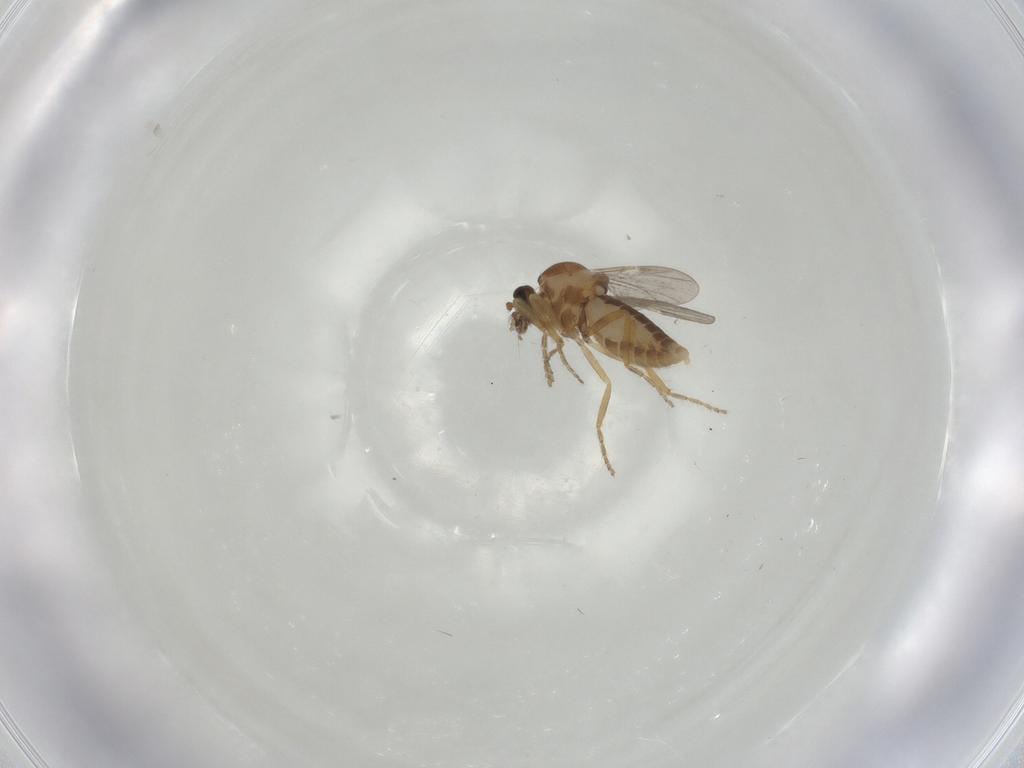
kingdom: Animalia
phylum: Arthropoda
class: Insecta
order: Diptera
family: Ceratopogonidae
